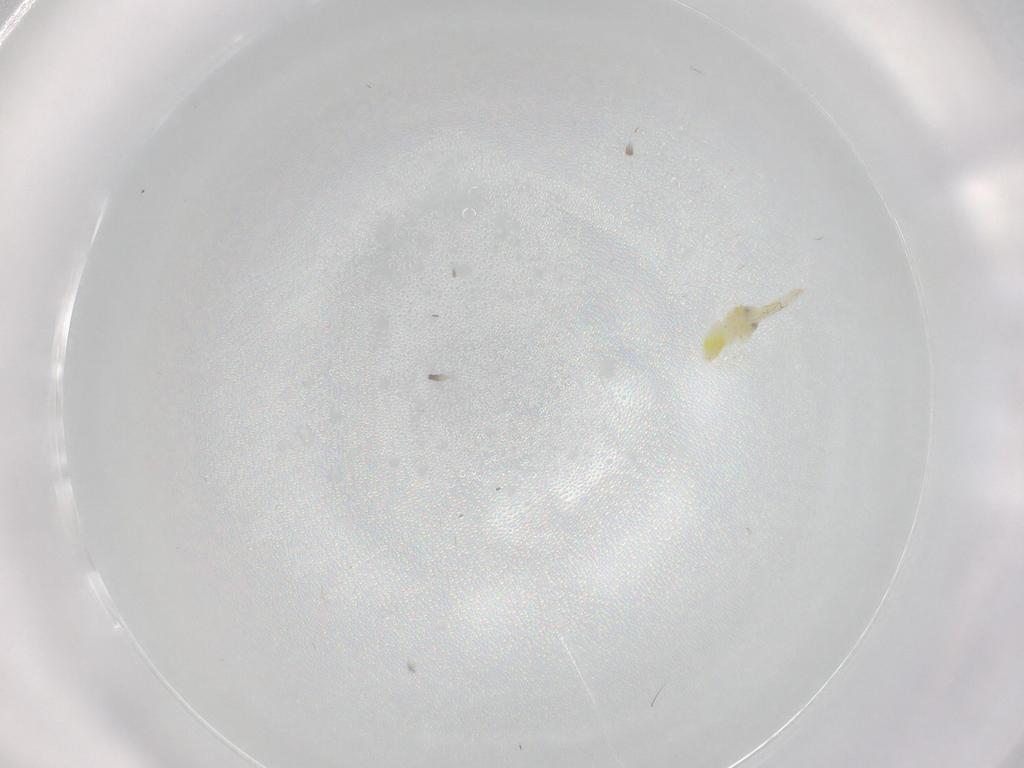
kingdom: Animalia
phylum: Arthropoda
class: Insecta
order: Hemiptera
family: Aleyrodidae
